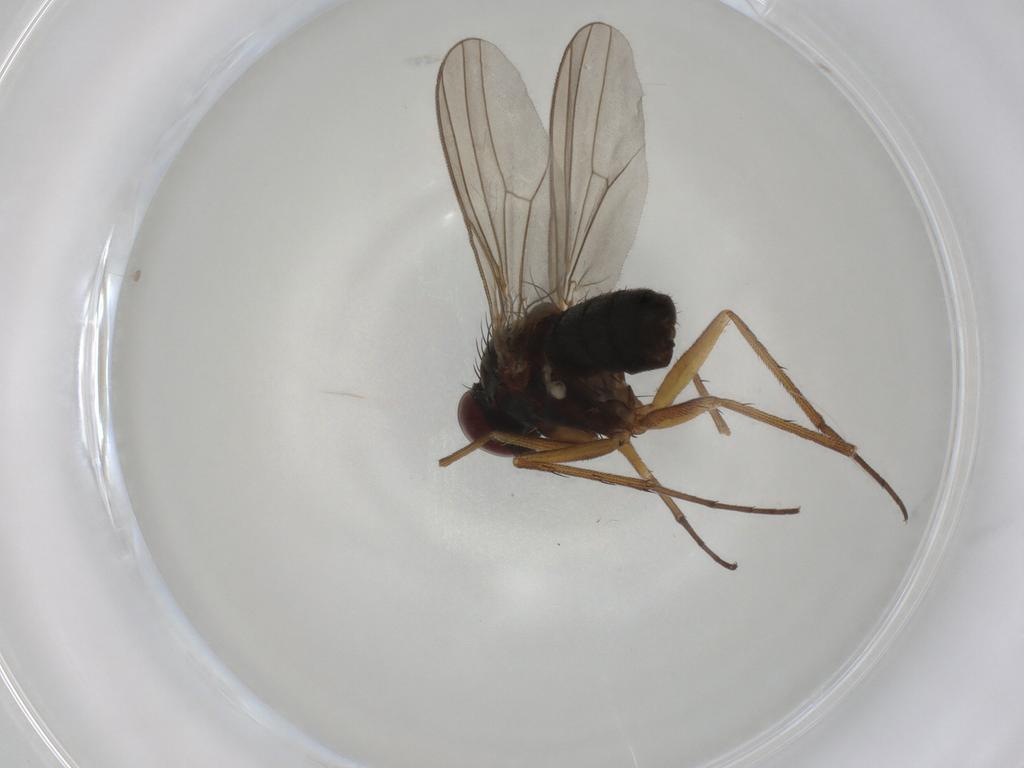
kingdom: Animalia
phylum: Arthropoda
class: Insecta
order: Diptera
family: Dolichopodidae
